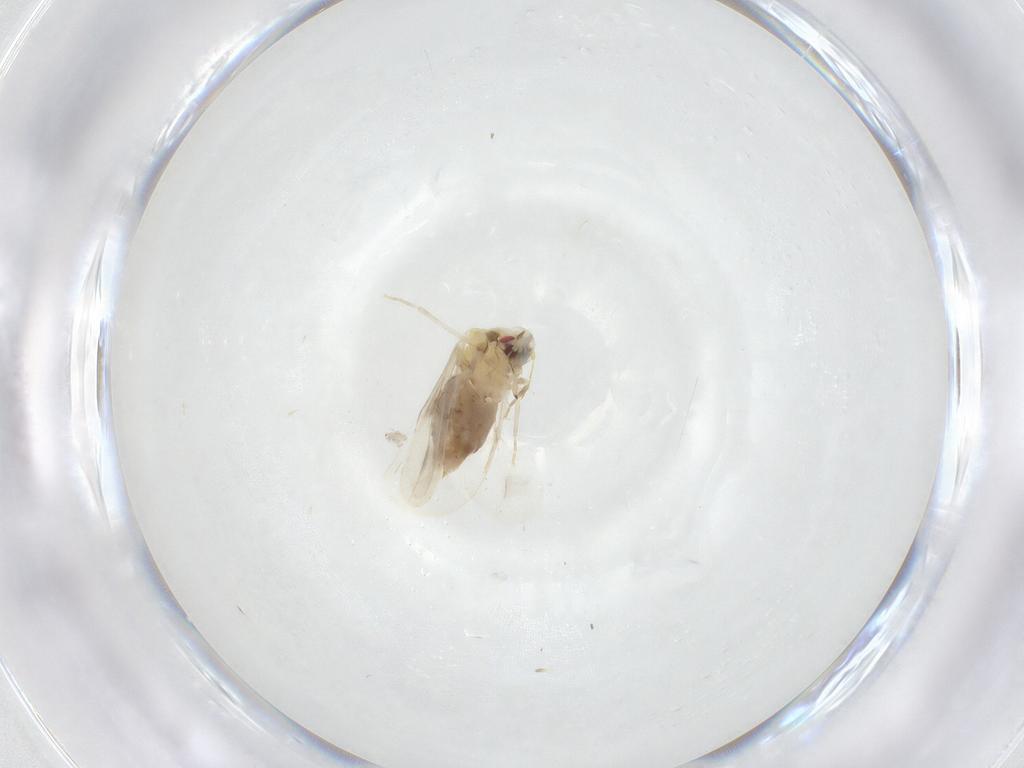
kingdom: Animalia
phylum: Arthropoda
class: Insecta
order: Hemiptera
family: Aleyrodidae
